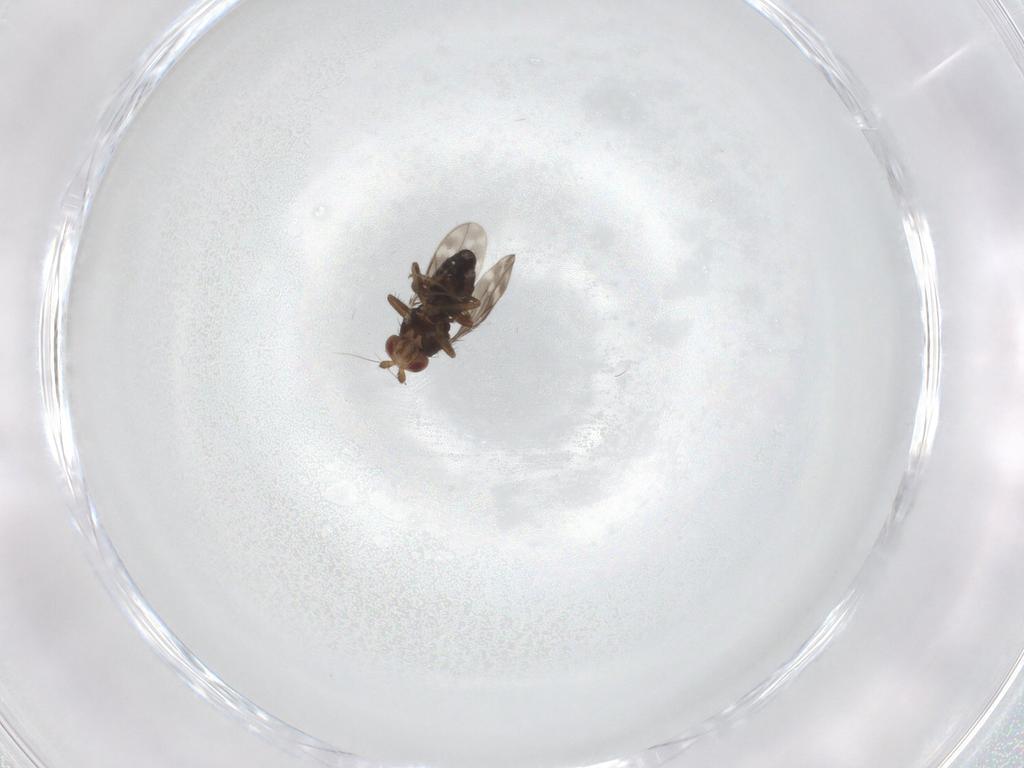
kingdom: Animalia
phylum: Arthropoda
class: Insecta
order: Diptera
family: Sphaeroceridae
